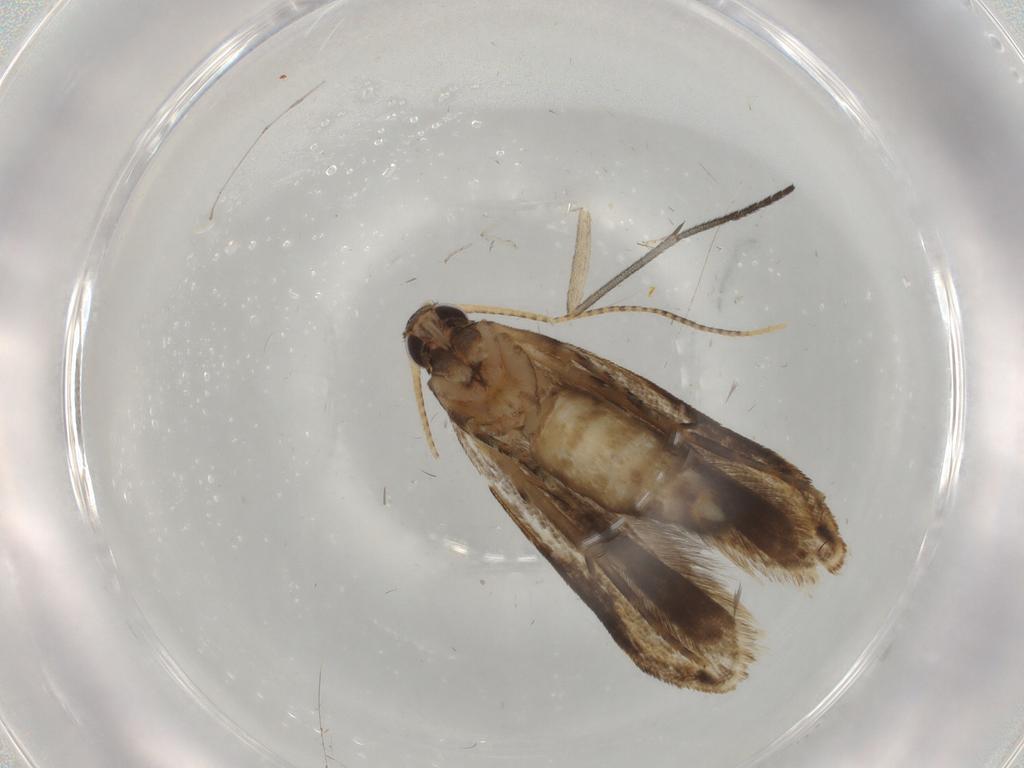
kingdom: Animalia
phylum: Arthropoda
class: Insecta
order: Lepidoptera
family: Gelechiidae
